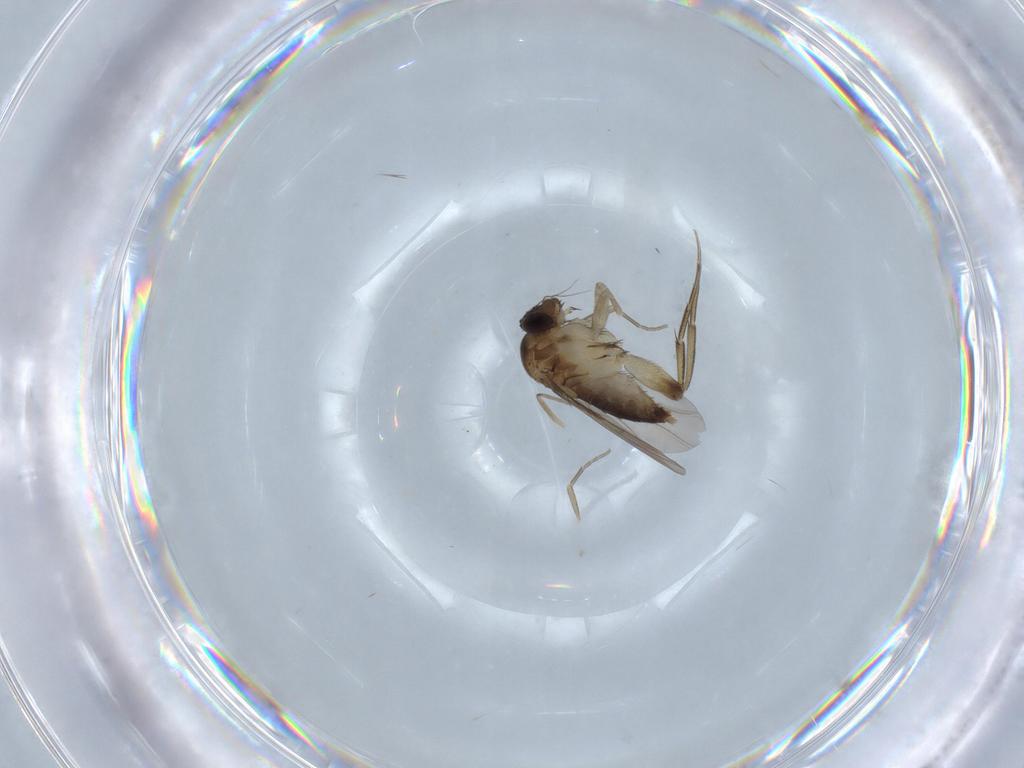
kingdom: Animalia
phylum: Arthropoda
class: Insecta
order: Diptera
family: Phoridae
